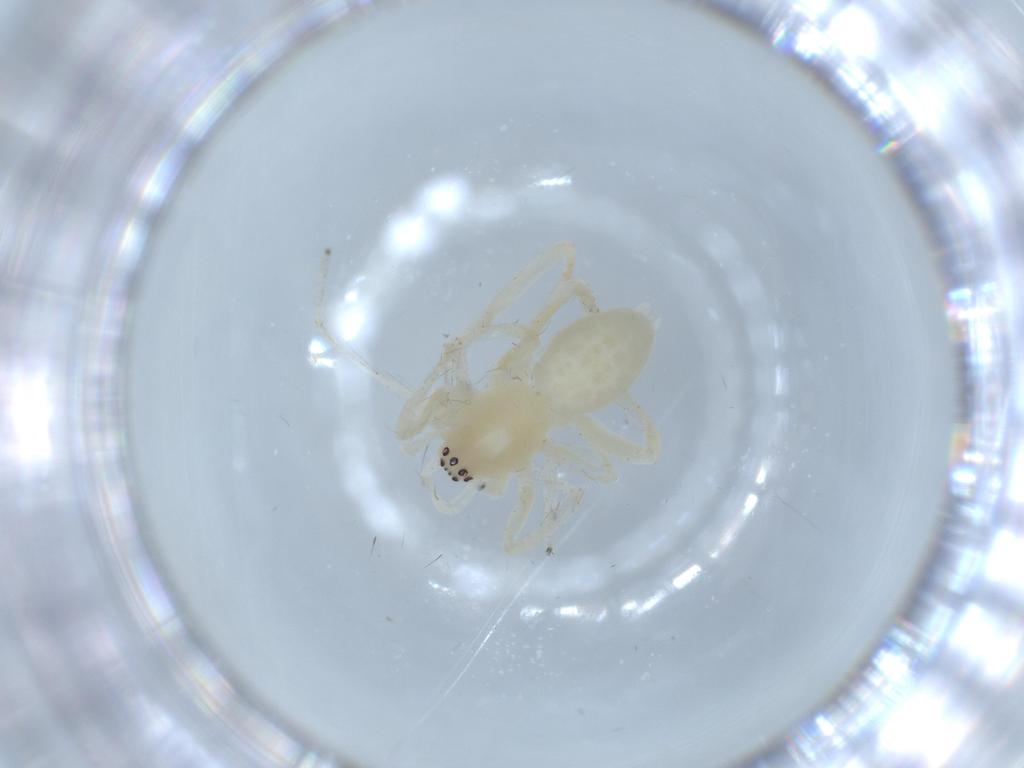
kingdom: Animalia
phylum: Arthropoda
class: Arachnida
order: Araneae
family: Anyphaenidae
